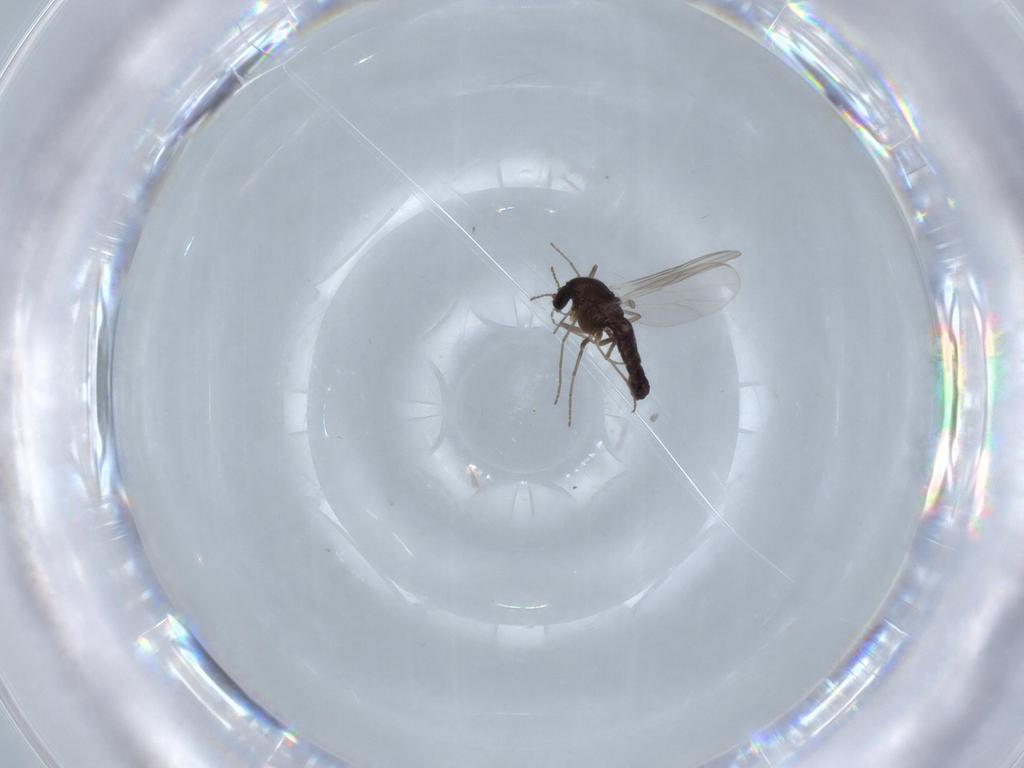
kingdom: Animalia
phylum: Arthropoda
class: Insecta
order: Diptera
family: Chironomidae
